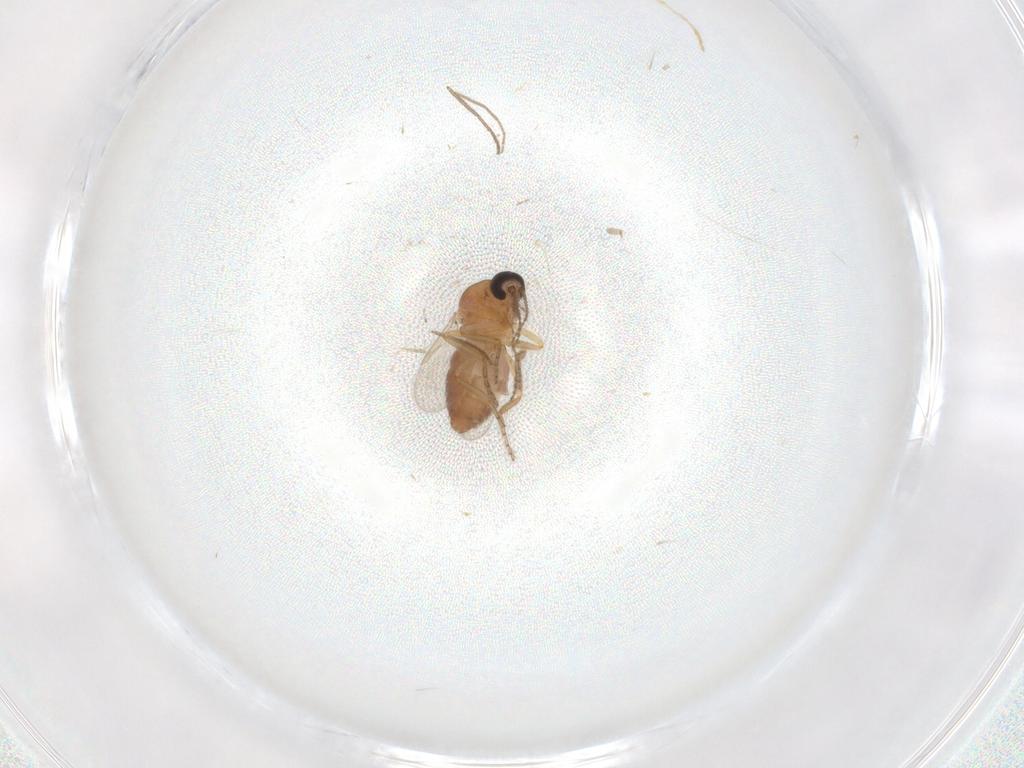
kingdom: Animalia
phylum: Arthropoda
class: Insecta
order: Diptera
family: Ceratopogonidae
